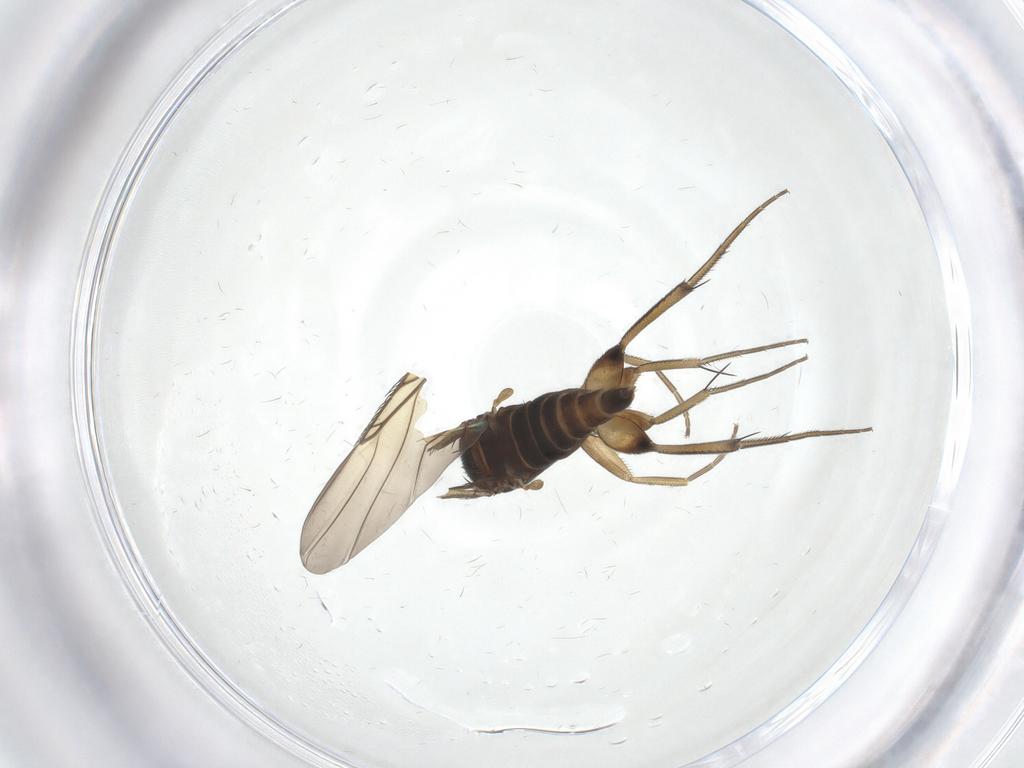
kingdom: Animalia
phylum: Arthropoda
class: Insecta
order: Diptera
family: Phoridae
